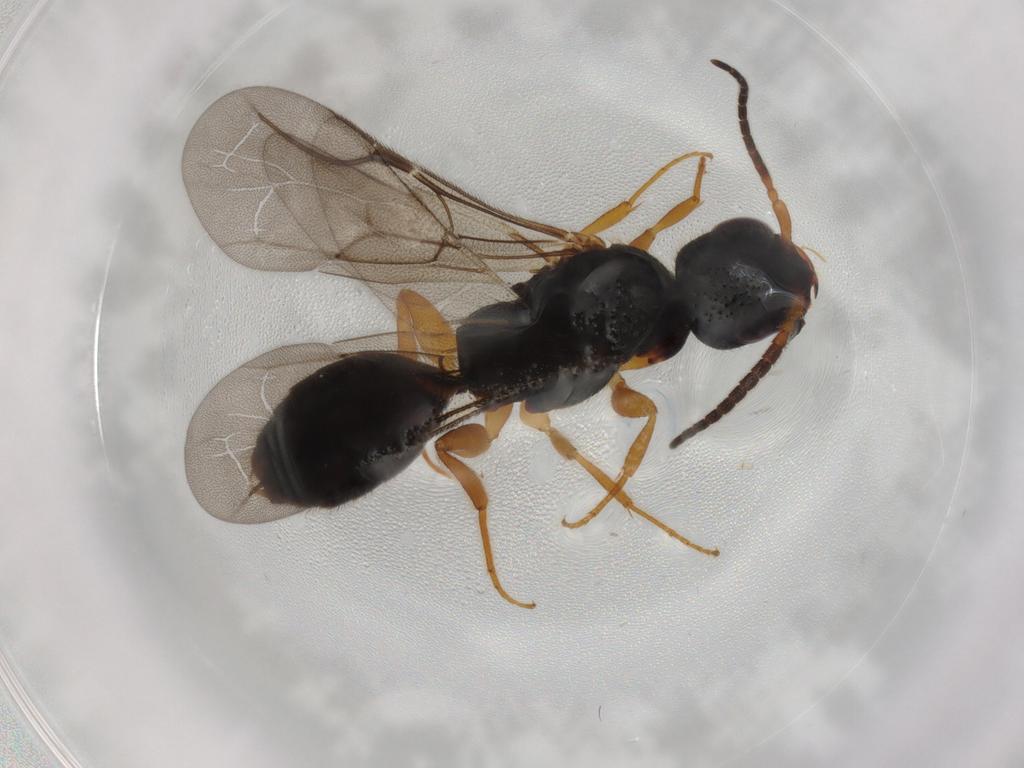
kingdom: Animalia
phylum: Arthropoda
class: Insecta
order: Hymenoptera
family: Bethylidae
